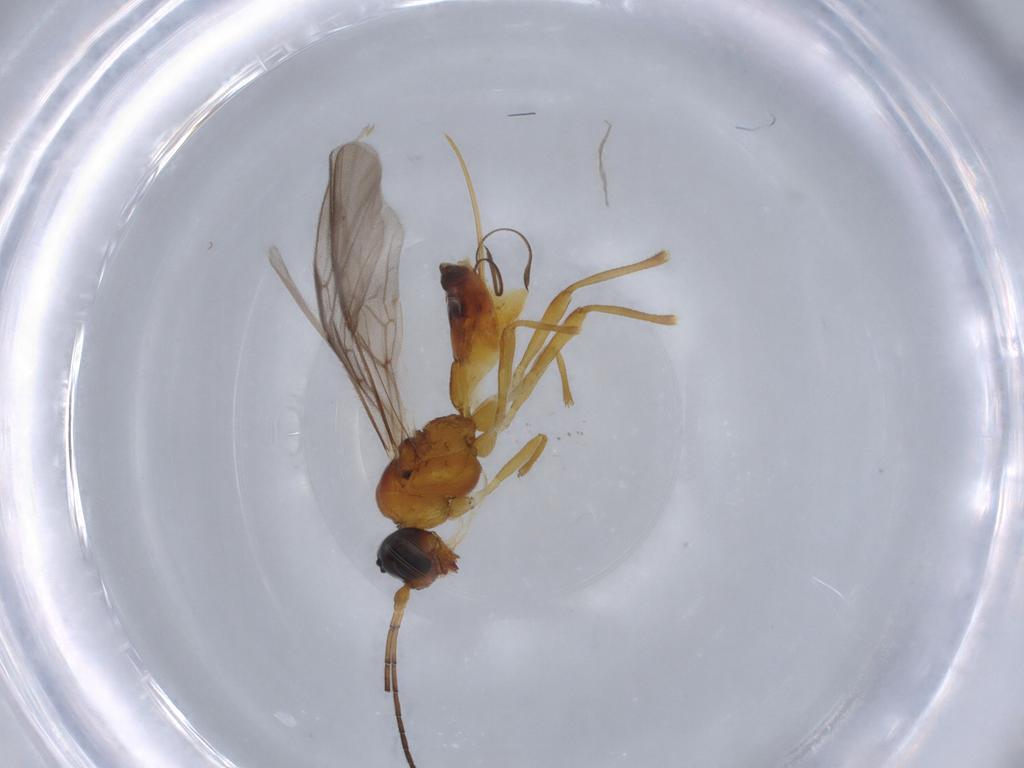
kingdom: Animalia
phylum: Arthropoda
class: Insecta
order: Hymenoptera
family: Braconidae
